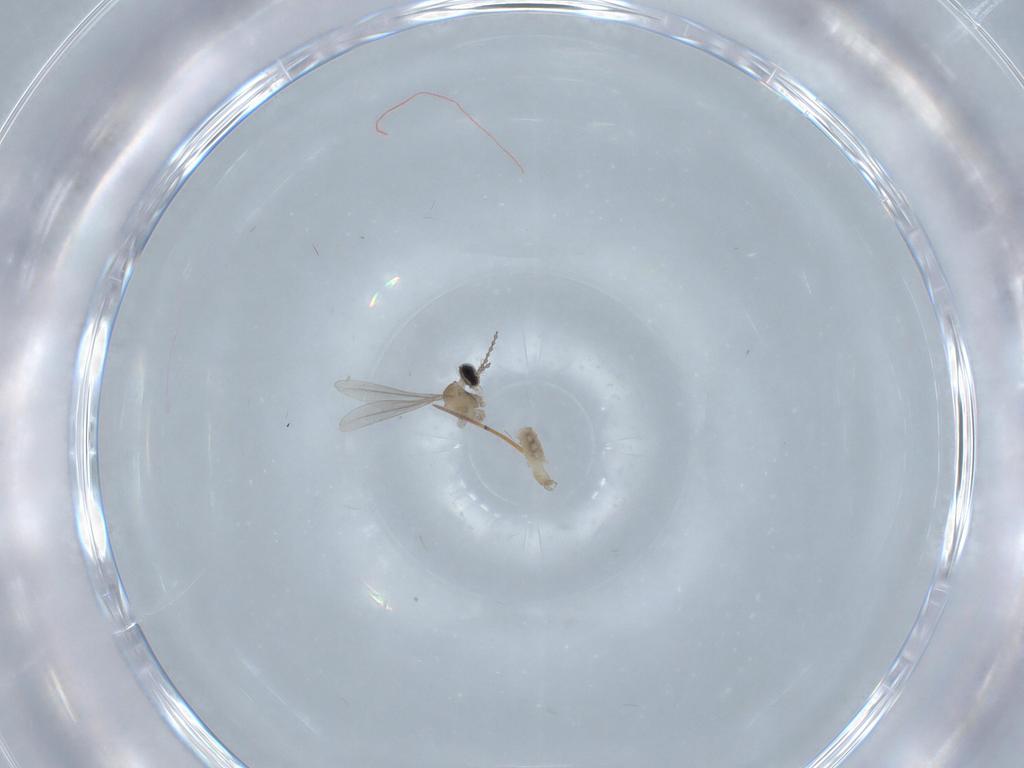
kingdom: Animalia
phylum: Arthropoda
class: Insecta
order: Diptera
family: Cecidomyiidae
